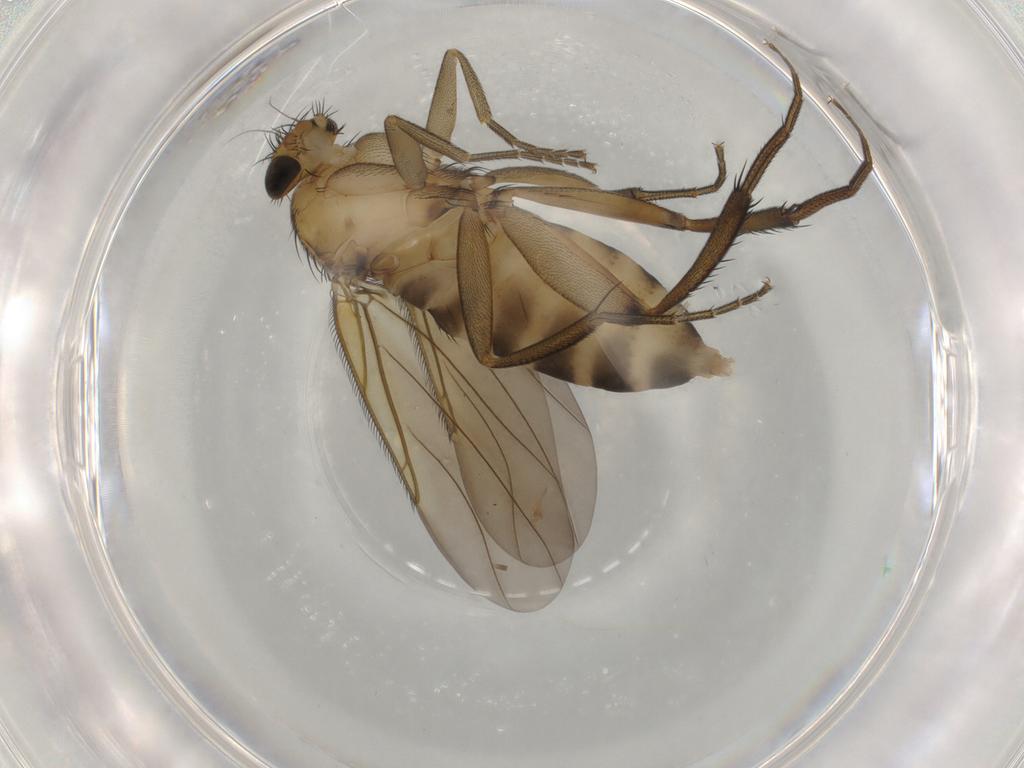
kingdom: Animalia
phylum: Arthropoda
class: Insecta
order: Diptera
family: Phoridae
